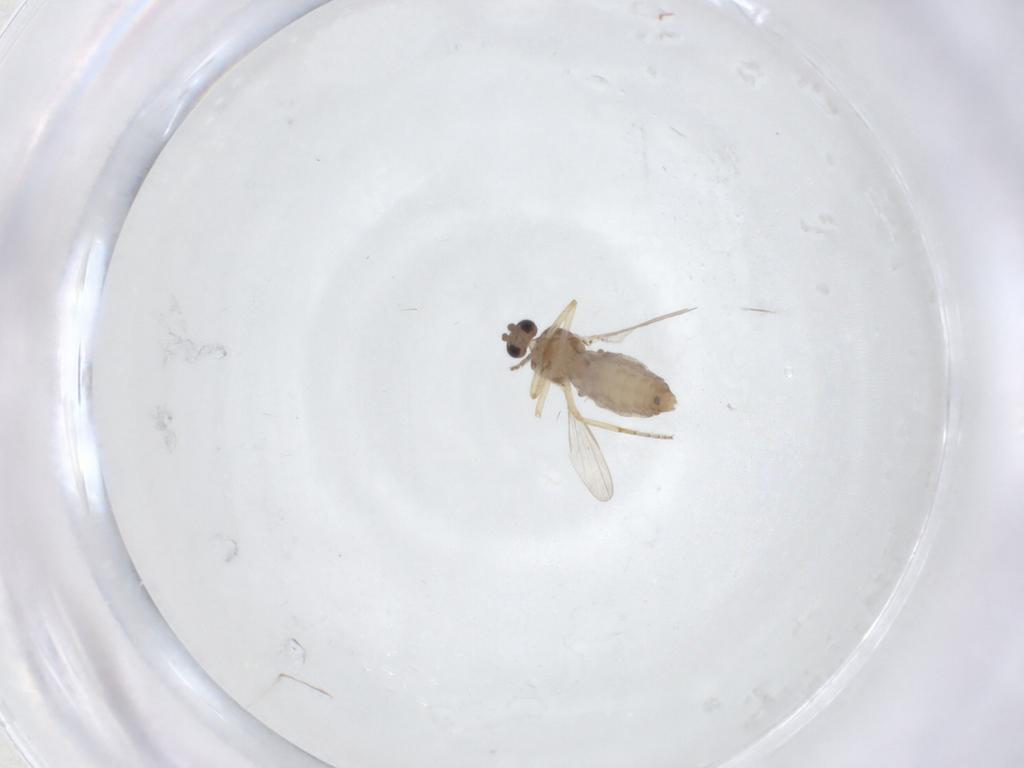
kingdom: Animalia
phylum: Arthropoda
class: Insecta
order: Diptera
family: Ceratopogonidae
